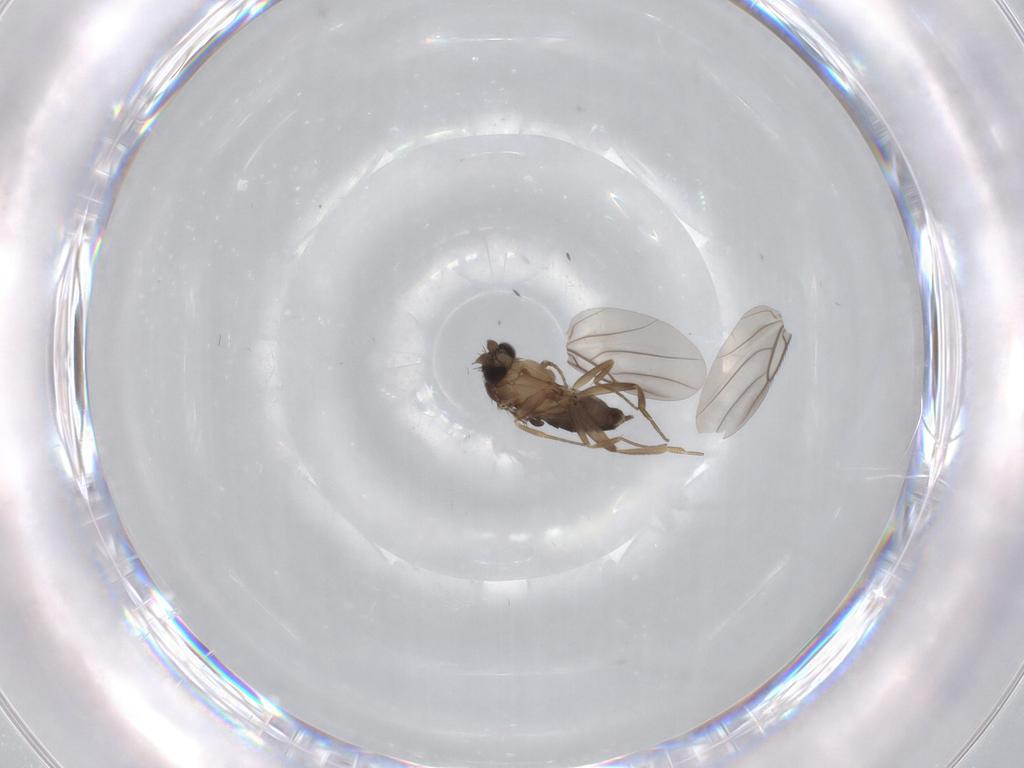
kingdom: Animalia
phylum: Arthropoda
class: Insecta
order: Diptera
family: Phoridae
